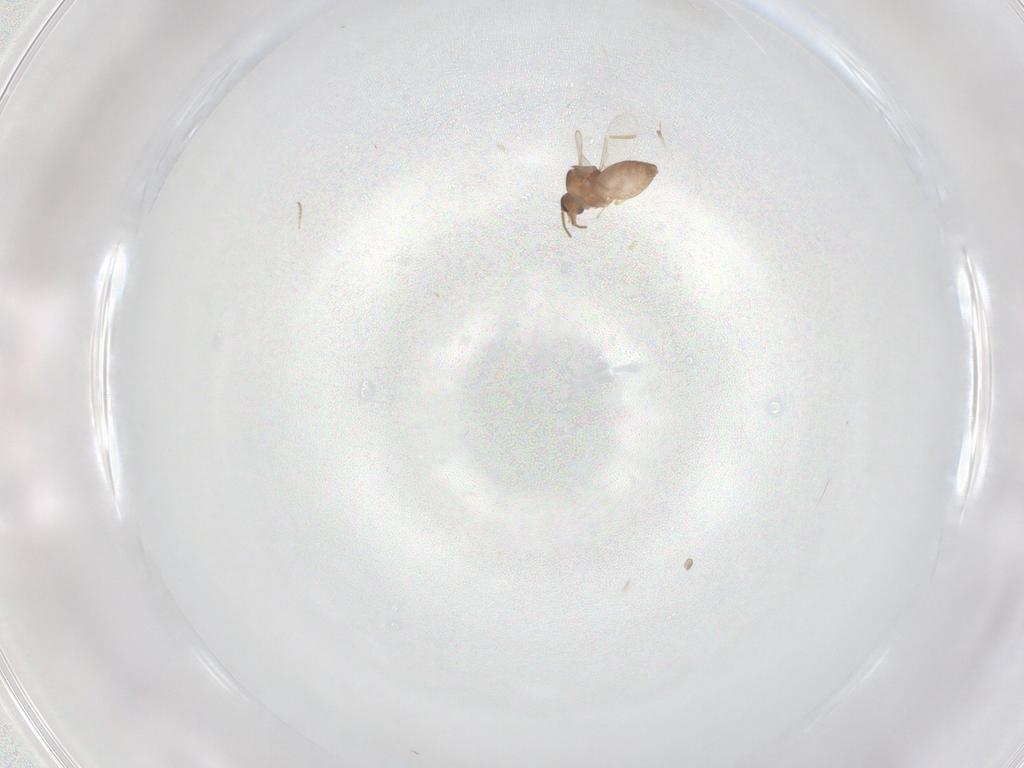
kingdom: Animalia
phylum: Arthropoda
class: Insecta
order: Diptera
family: Ceratopogonidae
